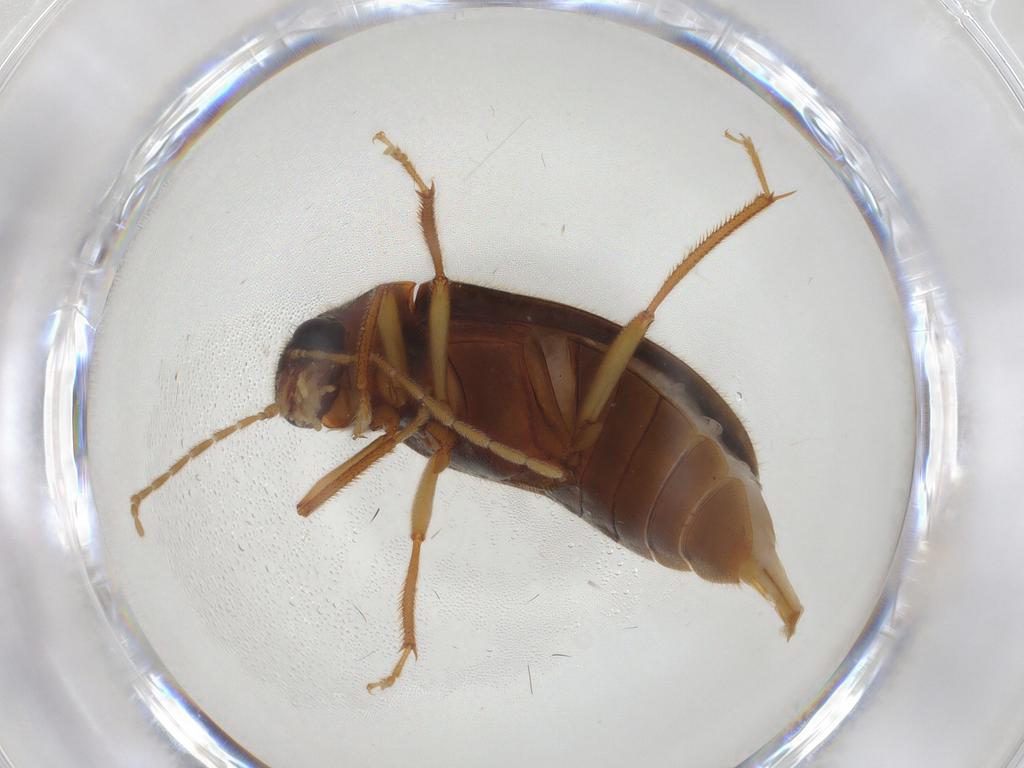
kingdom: Animalia
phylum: Arthropoda
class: Insecta
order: Coleoptera
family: Ptilodactylidae
